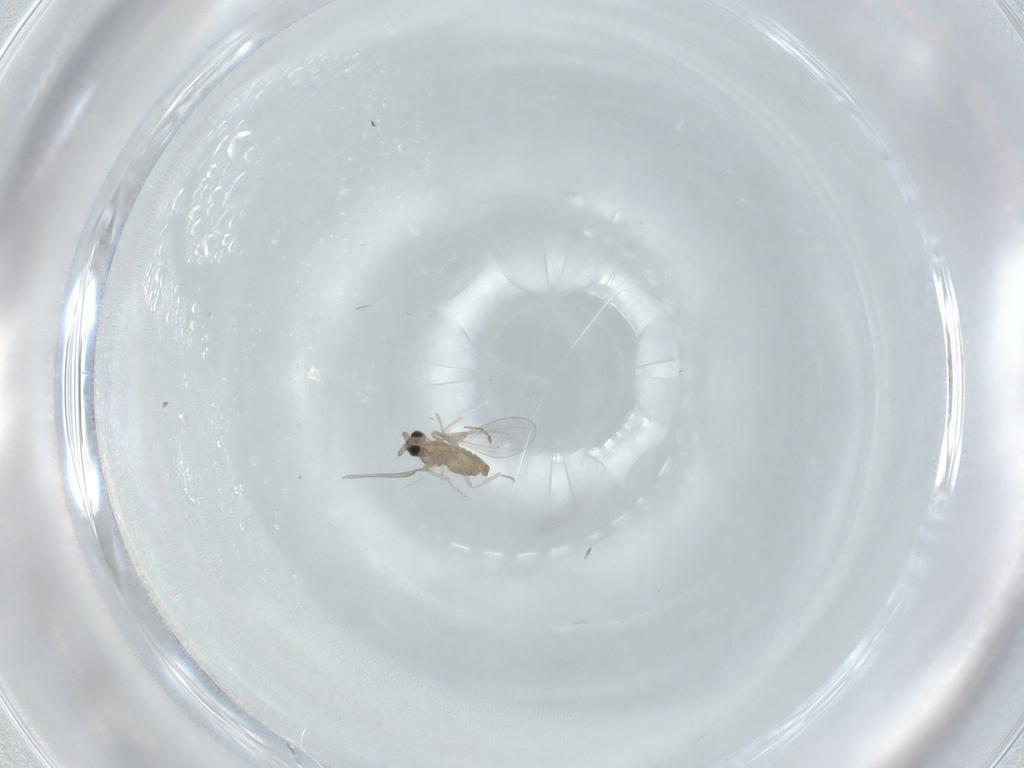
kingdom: Animalia
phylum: Arthropoda
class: Insecta
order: Diptera
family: Cecidomyiidae
